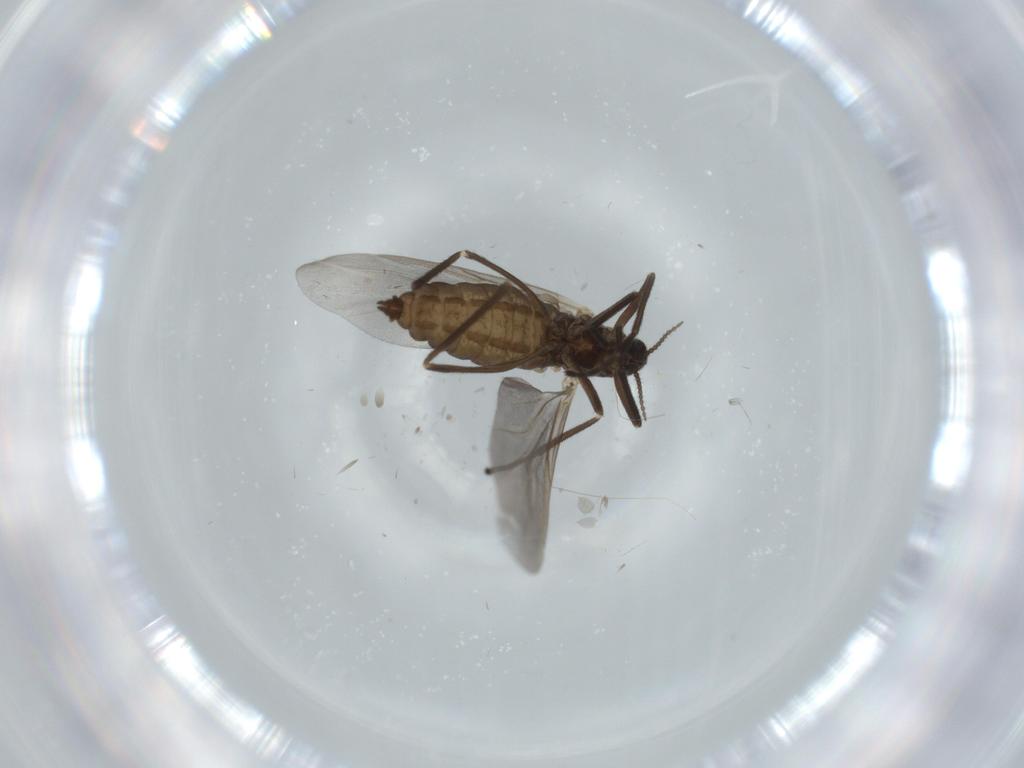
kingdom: Animalia
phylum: Arthropoda
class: Insecta
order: Diptera
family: Cecidomyiidae
